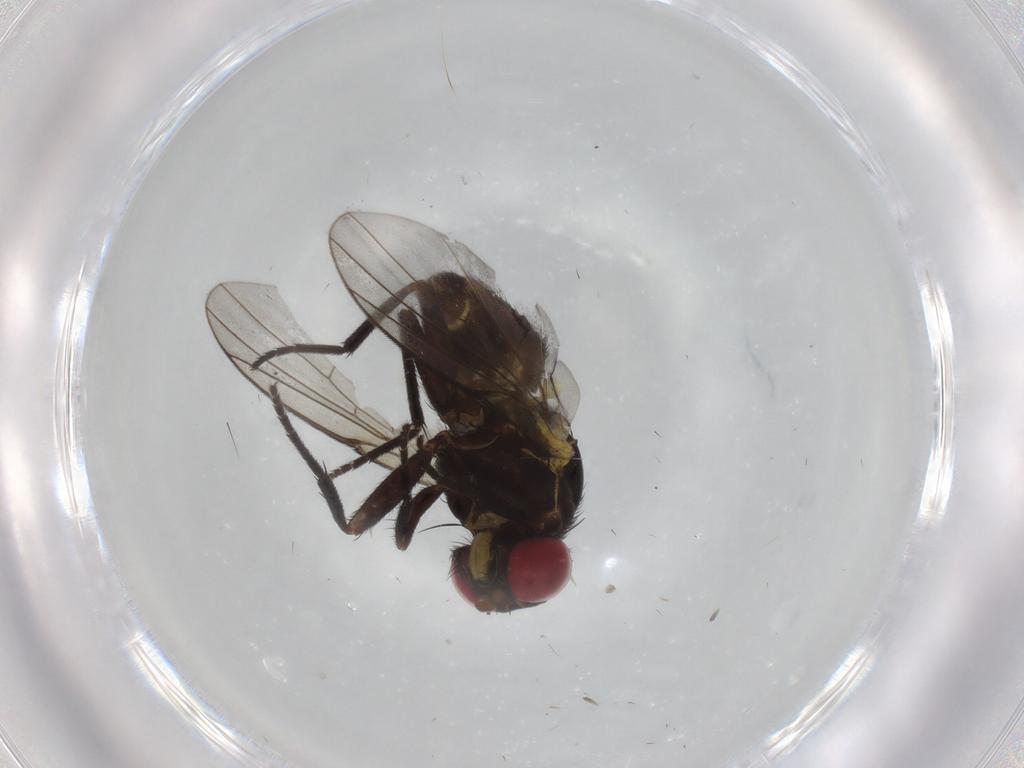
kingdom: Animalia
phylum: Arthropoda
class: Insecta
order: Diptera
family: Agromyzidae
